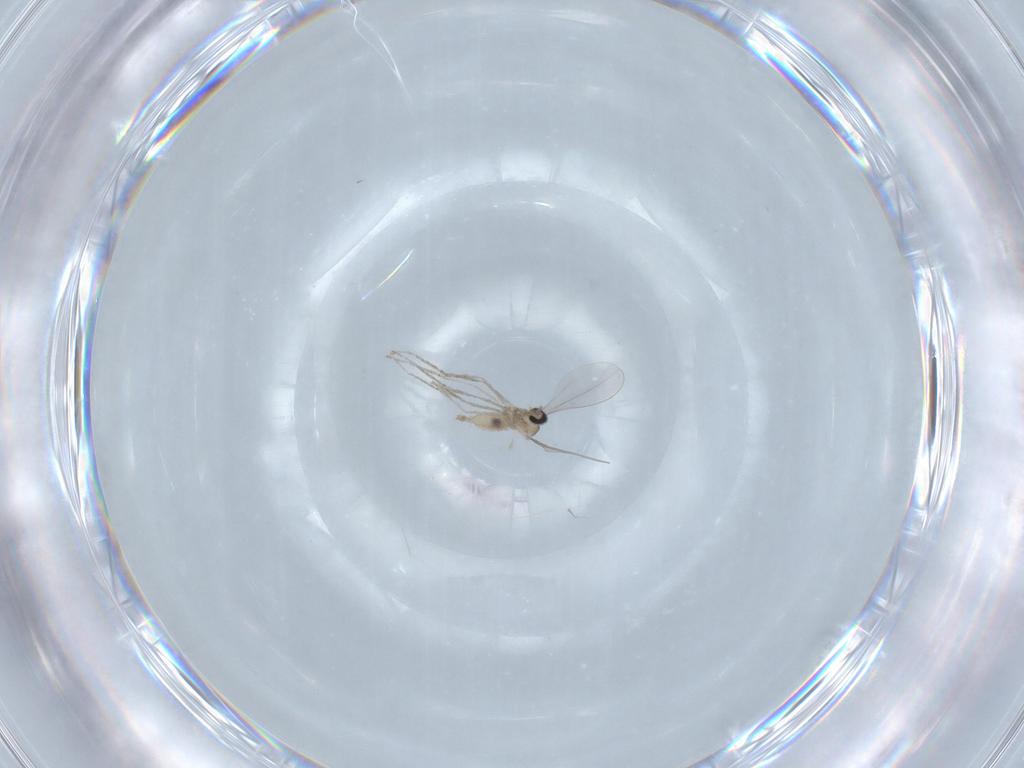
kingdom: Animalia
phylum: Arthropoda
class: Insecta
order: Diptera
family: Cecidomyiidae
